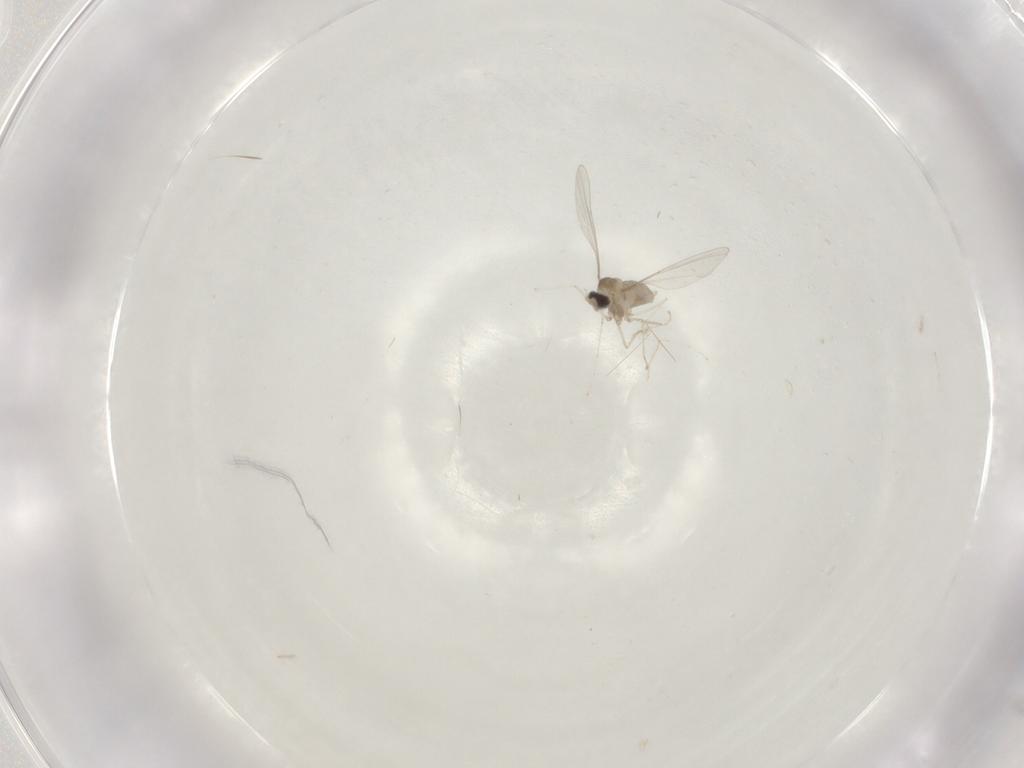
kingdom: Animalia
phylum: Arthropoda
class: Insecta
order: Diptera
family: Cecidomyiidae
